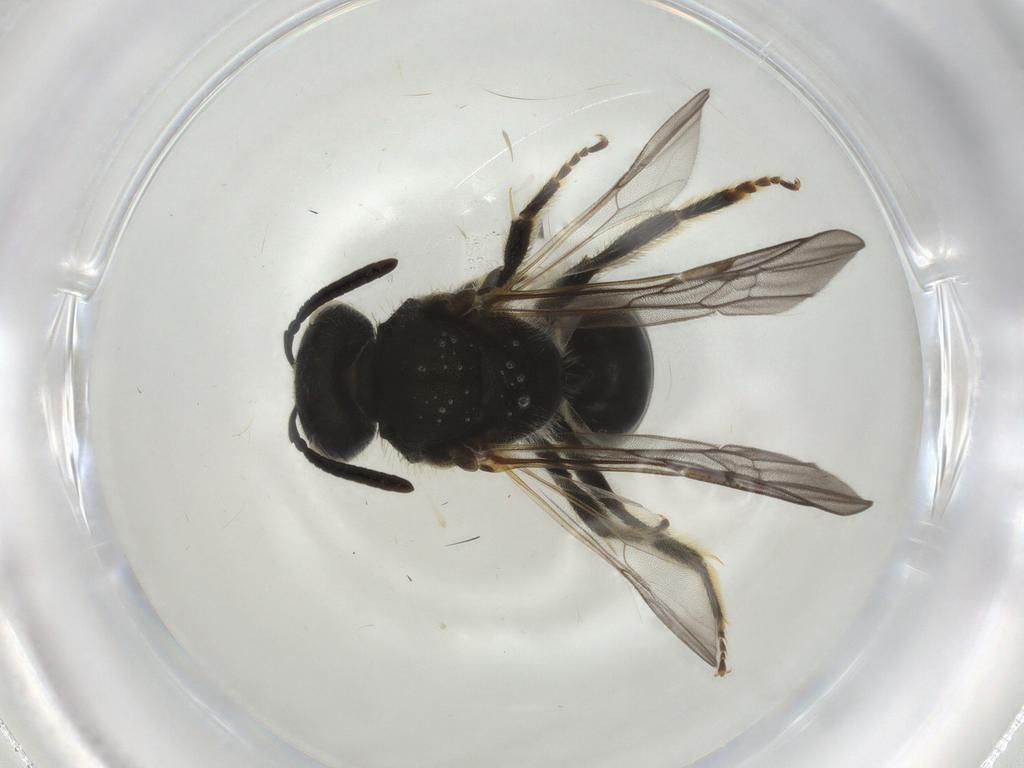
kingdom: Animalia
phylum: Arthropoda
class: Insecta
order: Hymenoptera
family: Halictidae
